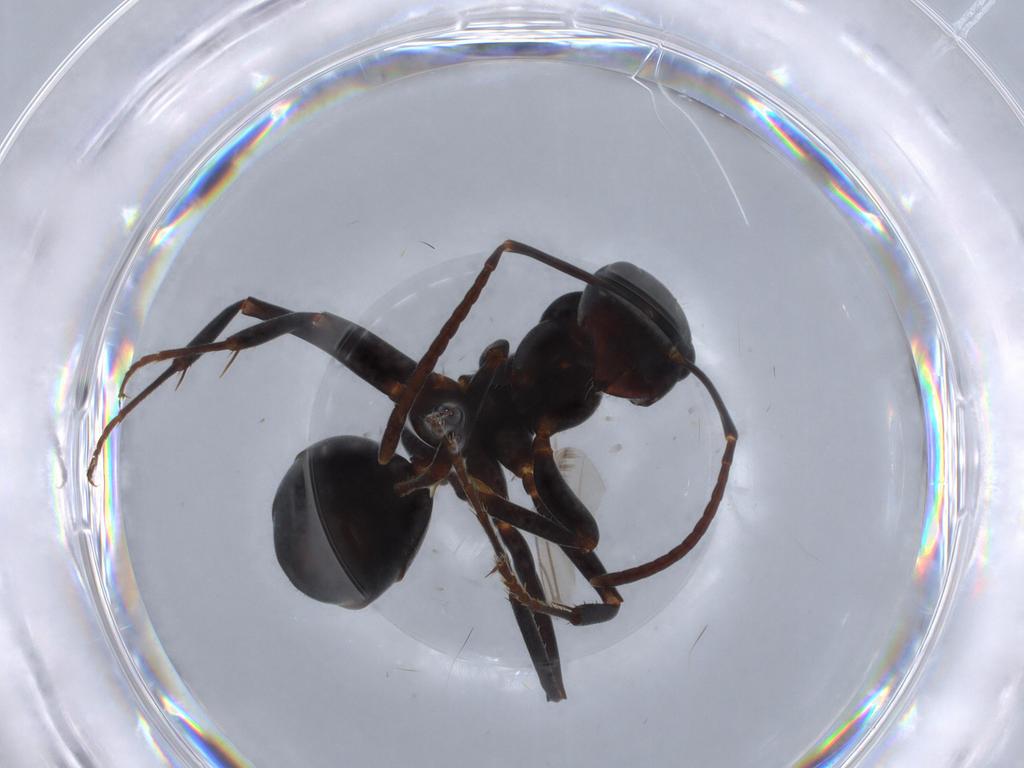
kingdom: Animalia
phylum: Arthropoda
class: Insecta
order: Hymenoptera
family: Formicidae
